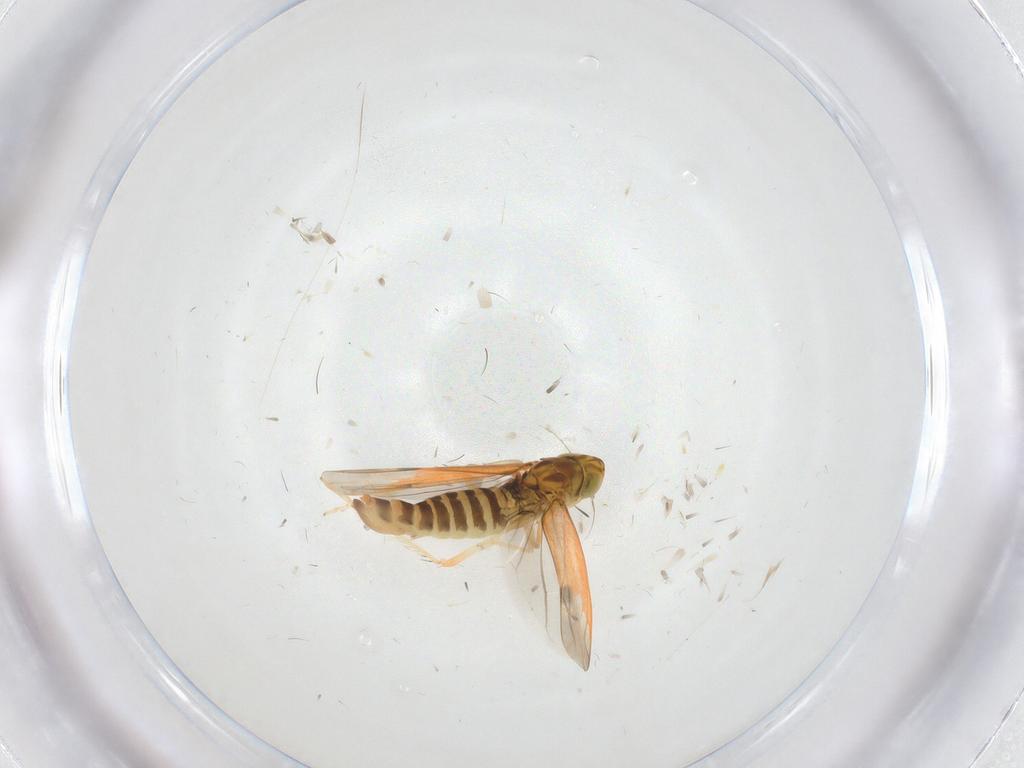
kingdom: Animalia
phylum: Arthropoda
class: Insecta
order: Hemiptera
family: Cicadellidae
